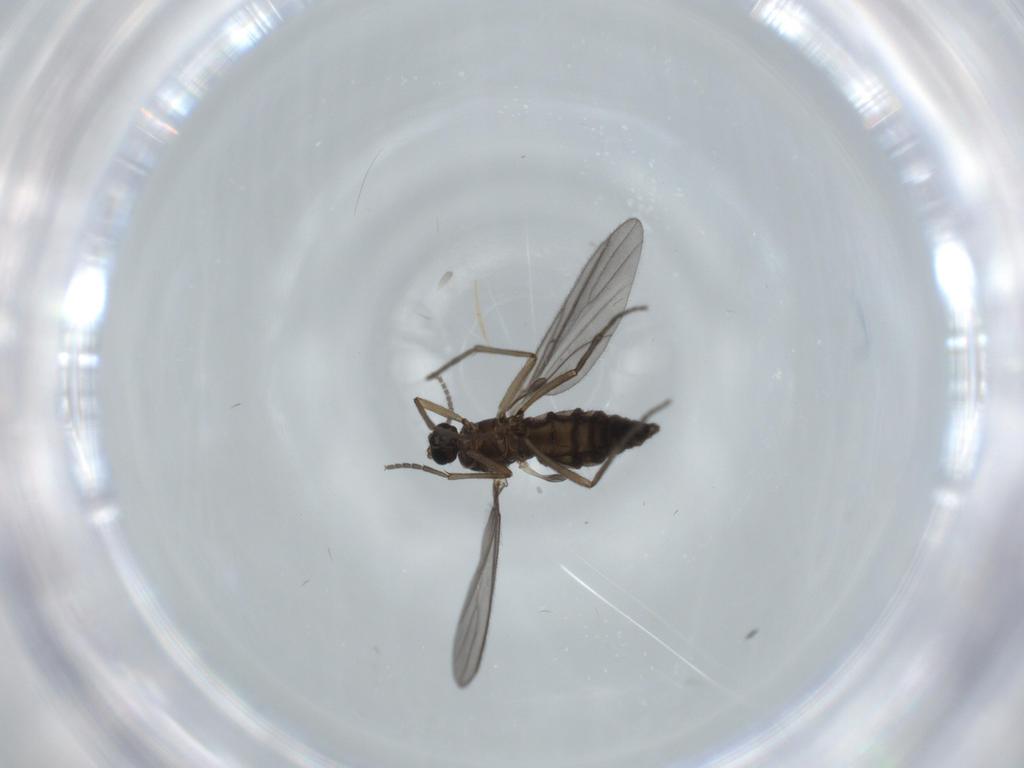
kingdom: Animalia
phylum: Arthropoda
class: Insecta
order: Diptera
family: Sciaridae
